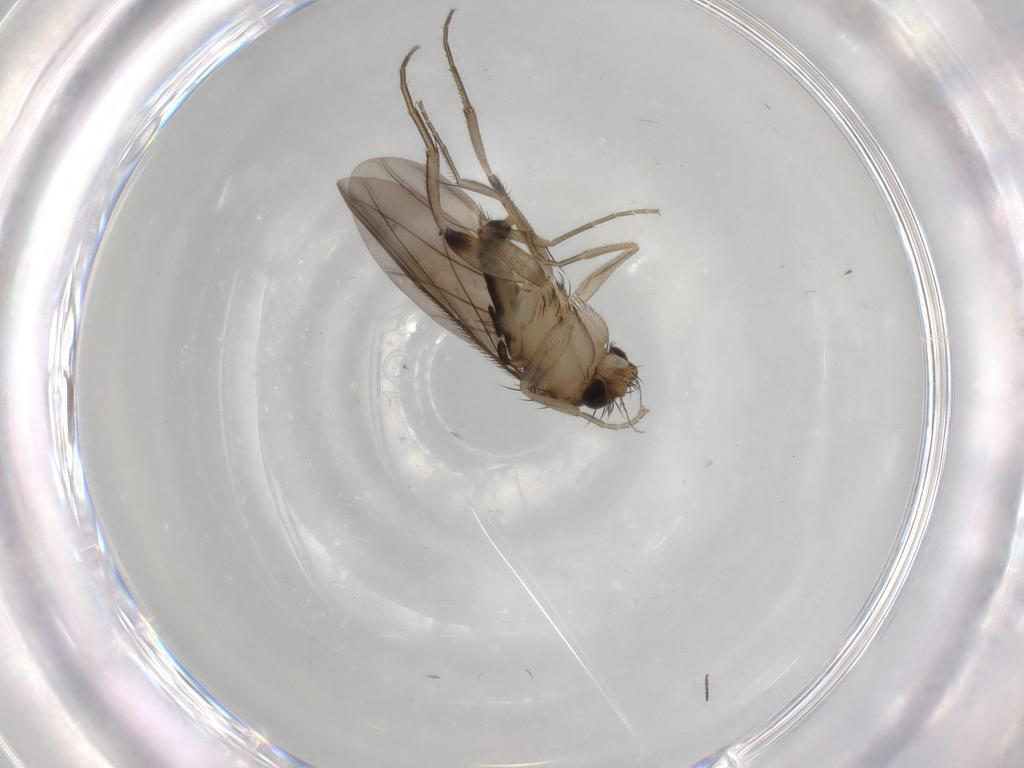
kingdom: Animalia
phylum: Arthropoda
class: Insecta
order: Diptera
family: Phoridae
